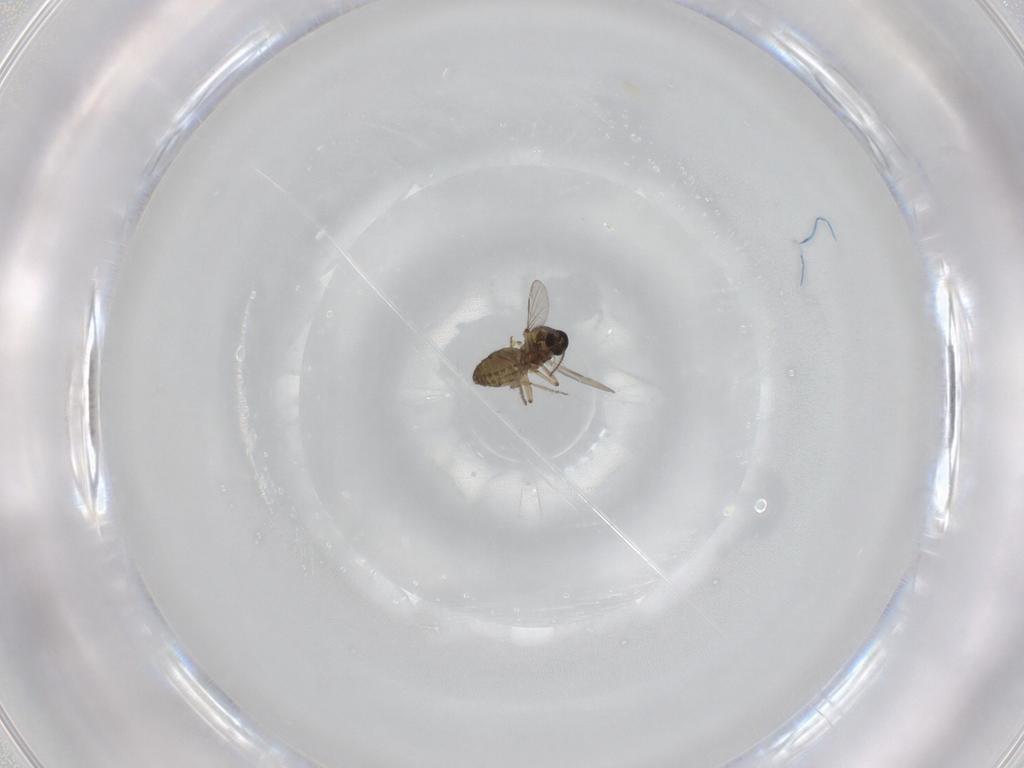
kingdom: Animalia
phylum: Arthropoda
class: Insecta
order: Diptera
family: Ceratopogonidae
